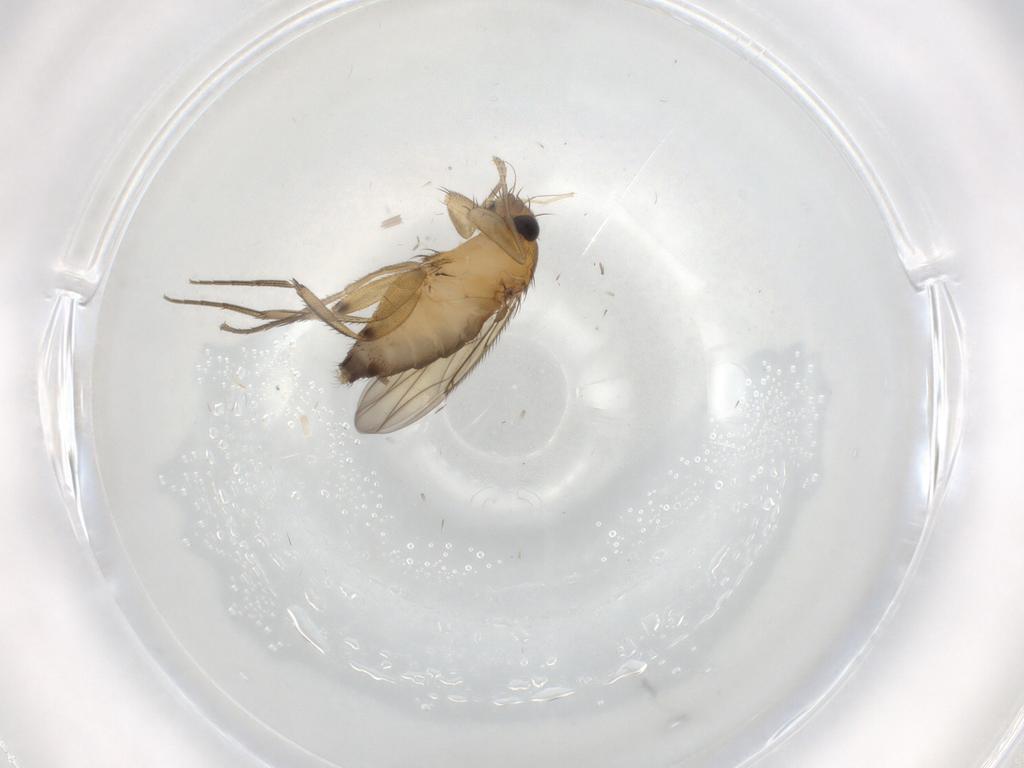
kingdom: Animalia
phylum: Arthropoda
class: Insecta
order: Diptera
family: Phoridae
